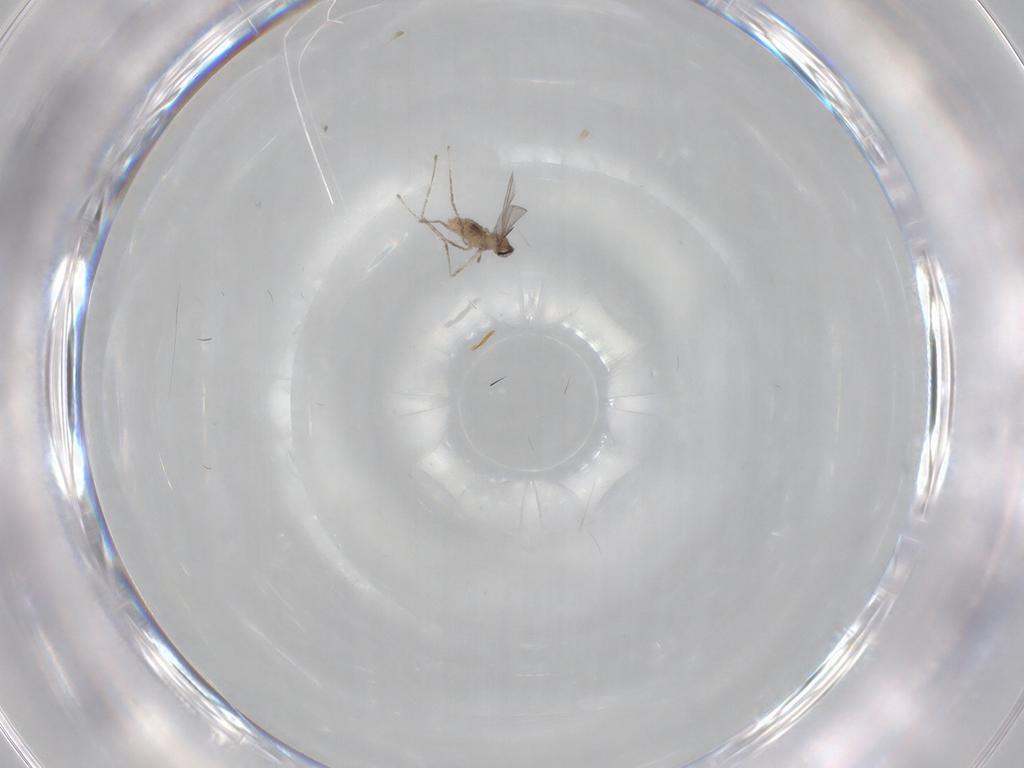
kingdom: Animalia
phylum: Arthropoda
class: Insecta
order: Diptera
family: Cecidomyiidae
